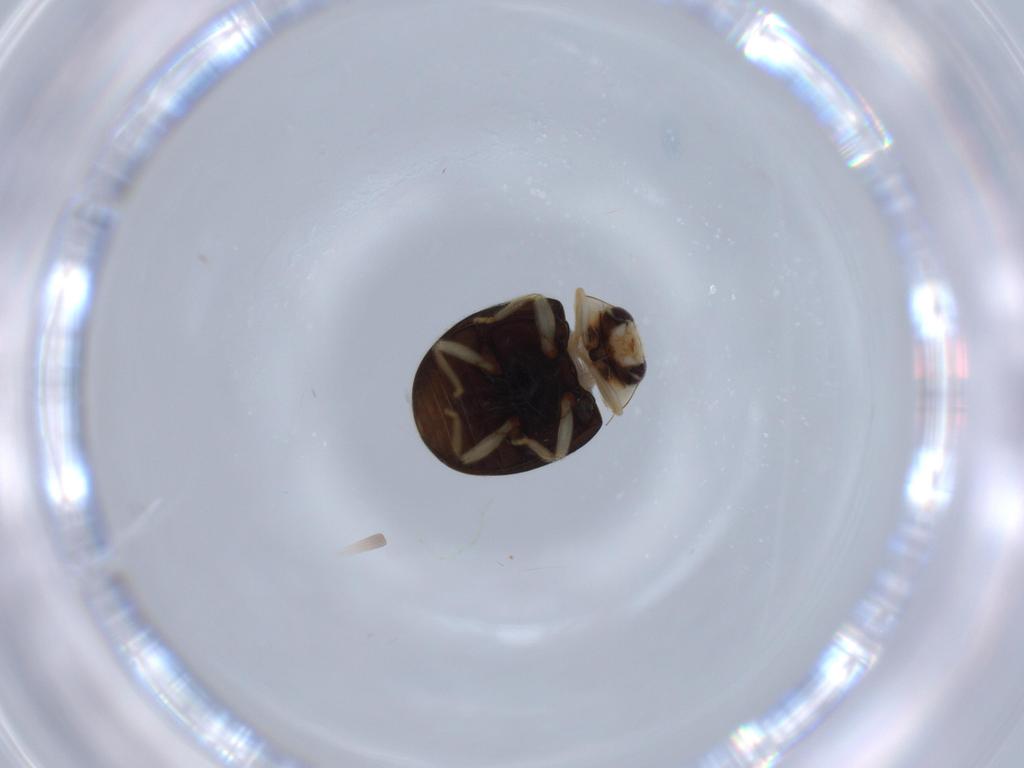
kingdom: Animalia
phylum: Arthropoda
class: Insecta
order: Coleoptera
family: Coccinellidae
